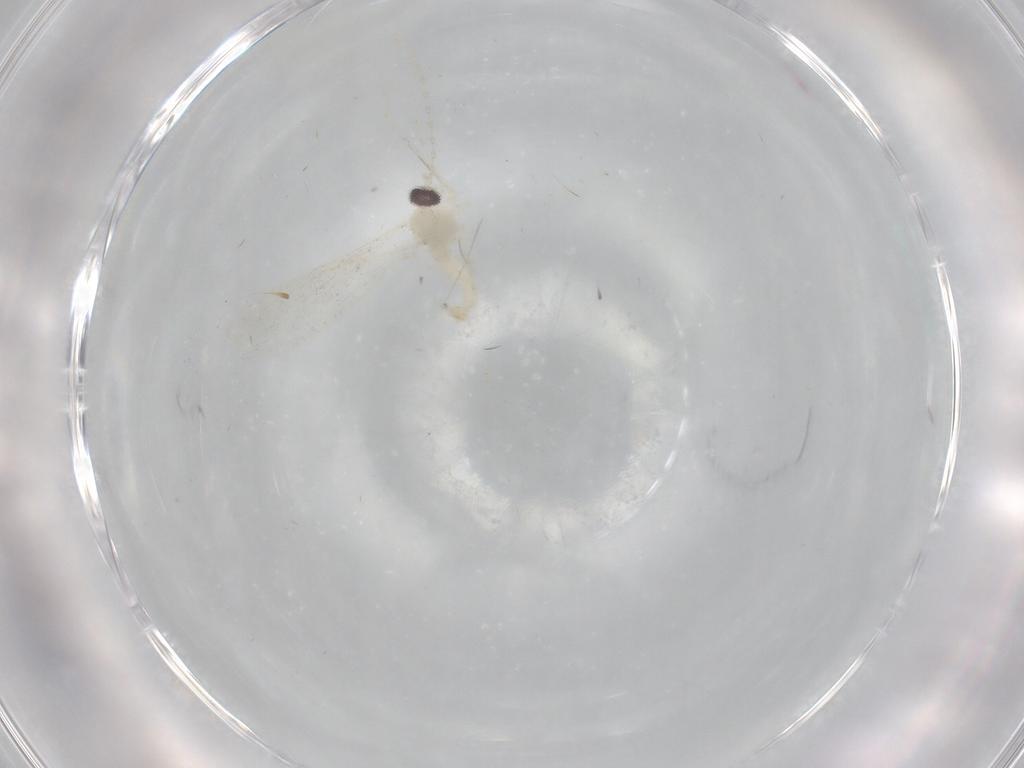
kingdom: Animalia
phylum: Arthropoda
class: Insecta
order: Diptera
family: Cecidomyiidae
